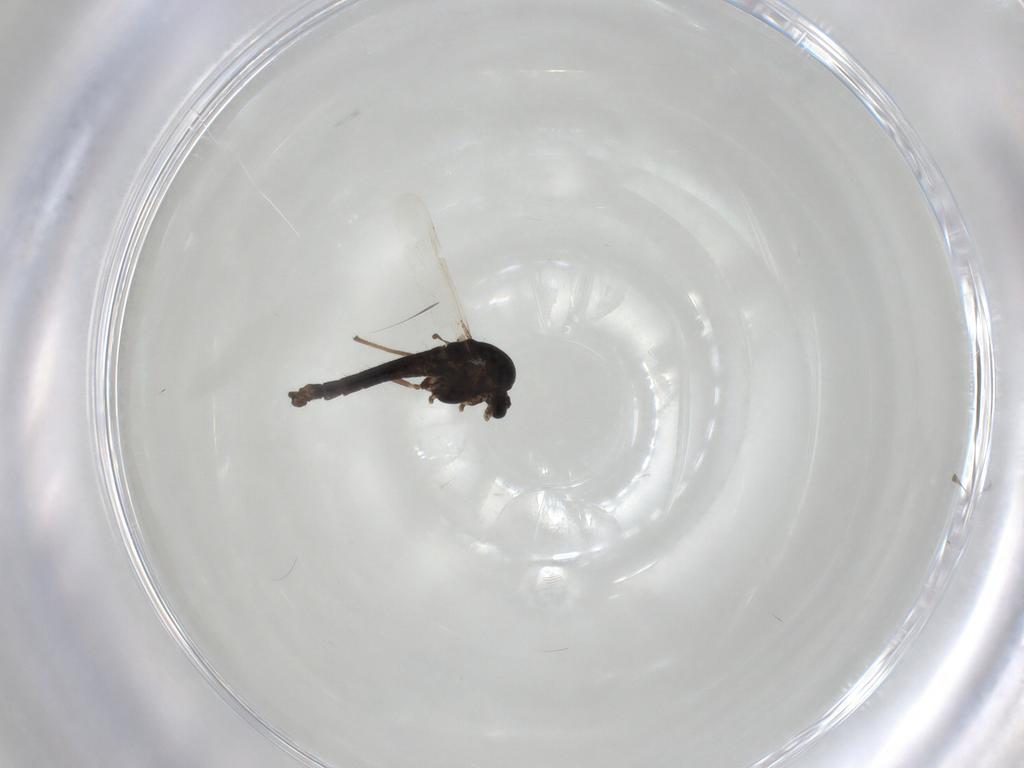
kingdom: Animalia
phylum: Arthropoda
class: Insecta
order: Diptera
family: Chironomidae
